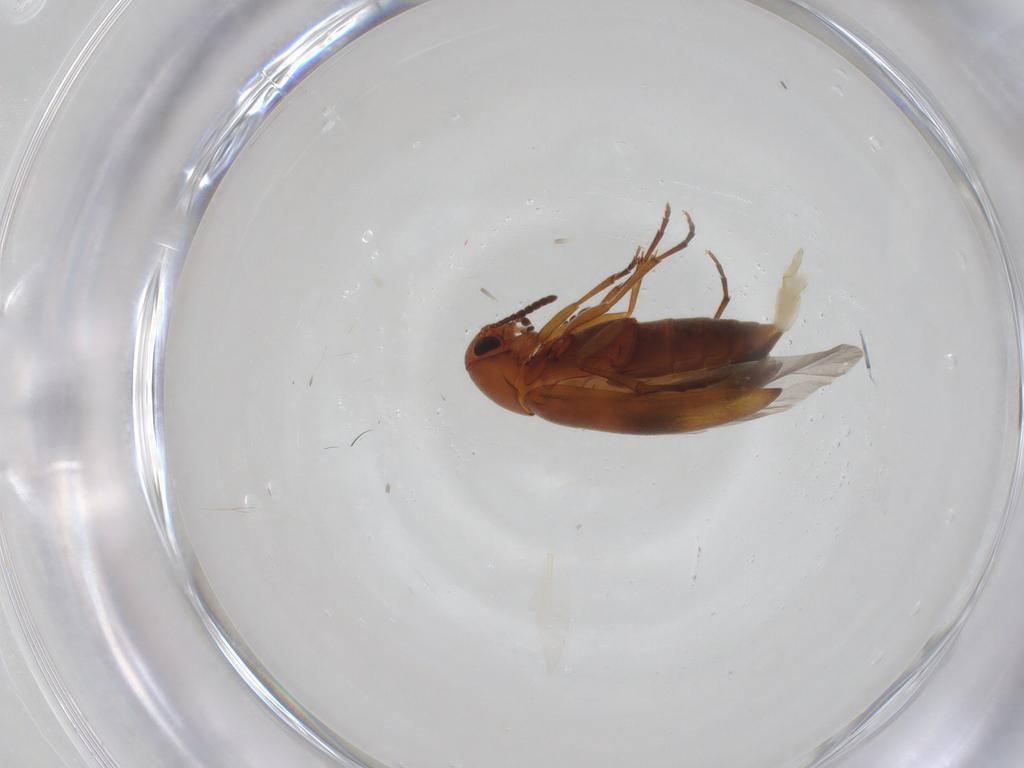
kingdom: Animalia
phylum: Arthropoda
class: Insecta
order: Coleoptera
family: Scraptiidae
